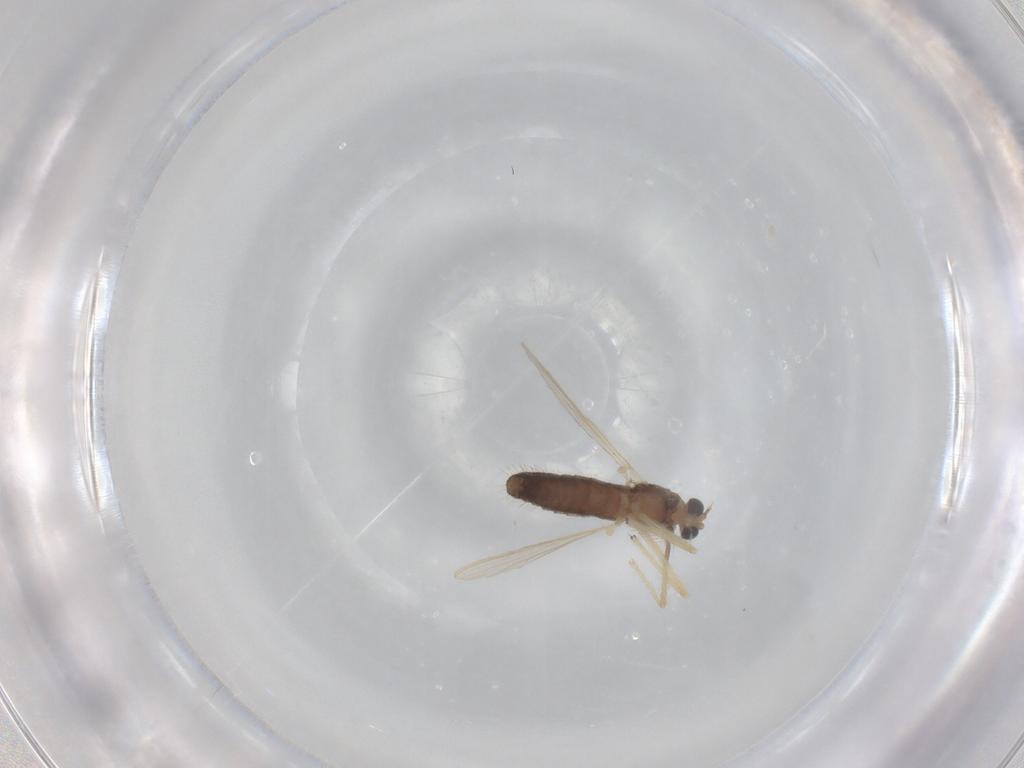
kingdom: Animalia
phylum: Arthropoda
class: Insecta
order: Diptera
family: Chironomidae
